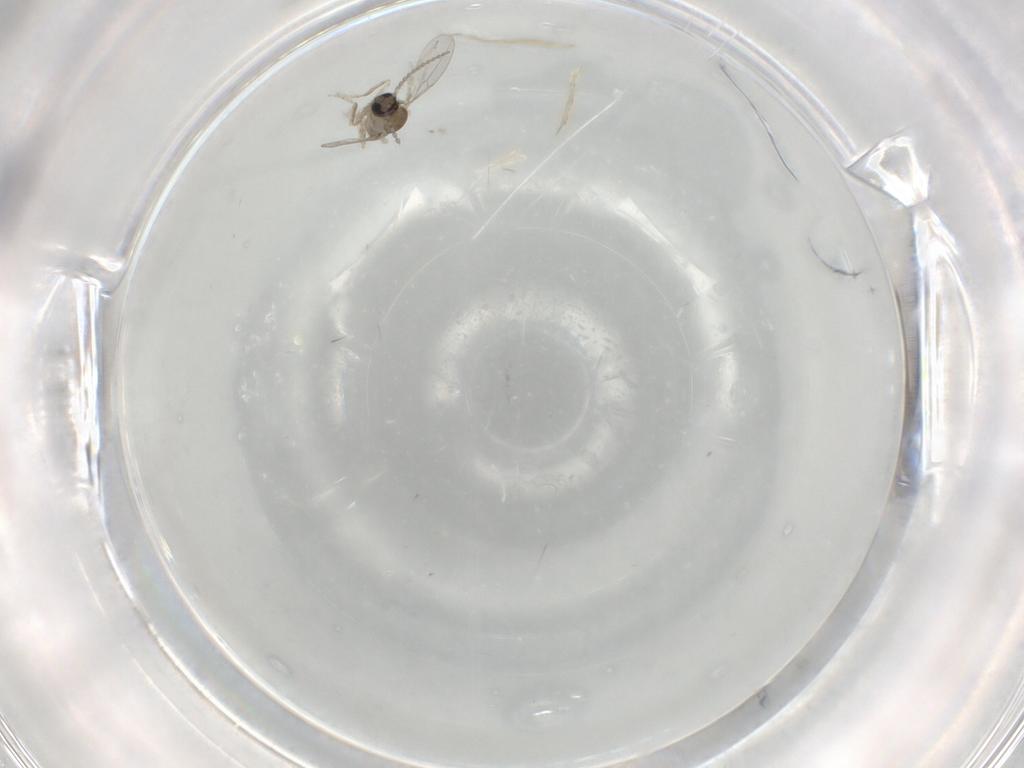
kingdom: Animalia
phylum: Arthropoda
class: Insecta
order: Diptera
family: Cecidomyiidae
